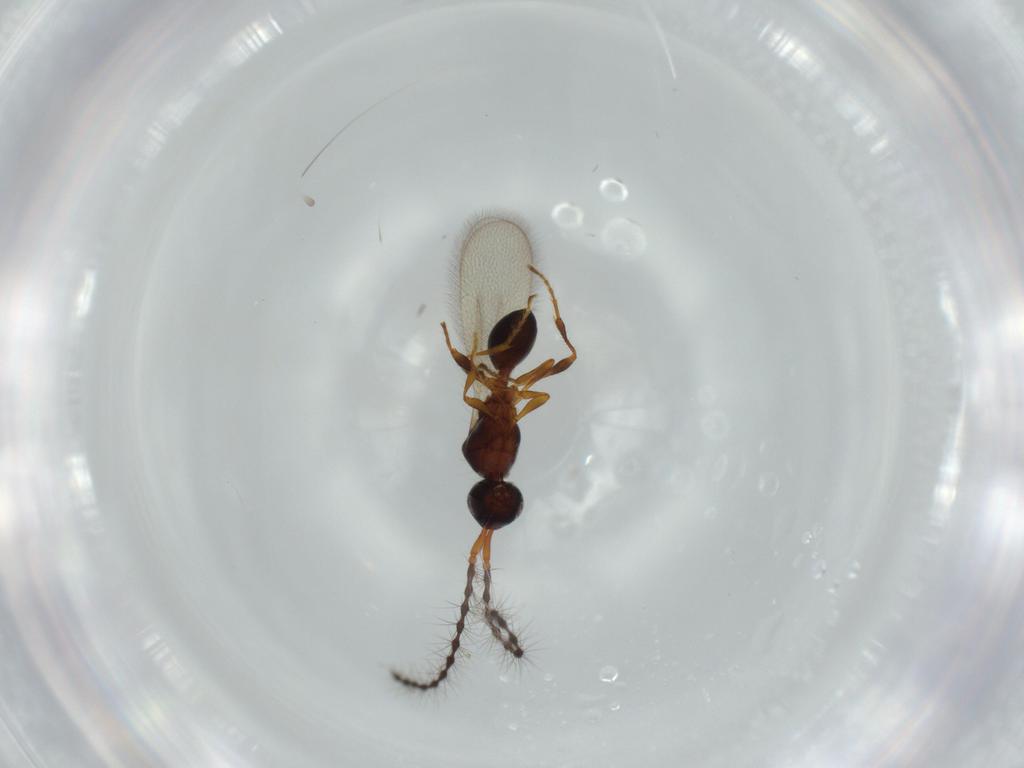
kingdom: Animalia
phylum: Arthropoda
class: Insecta
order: Hymenoptera
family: Diapriidae
